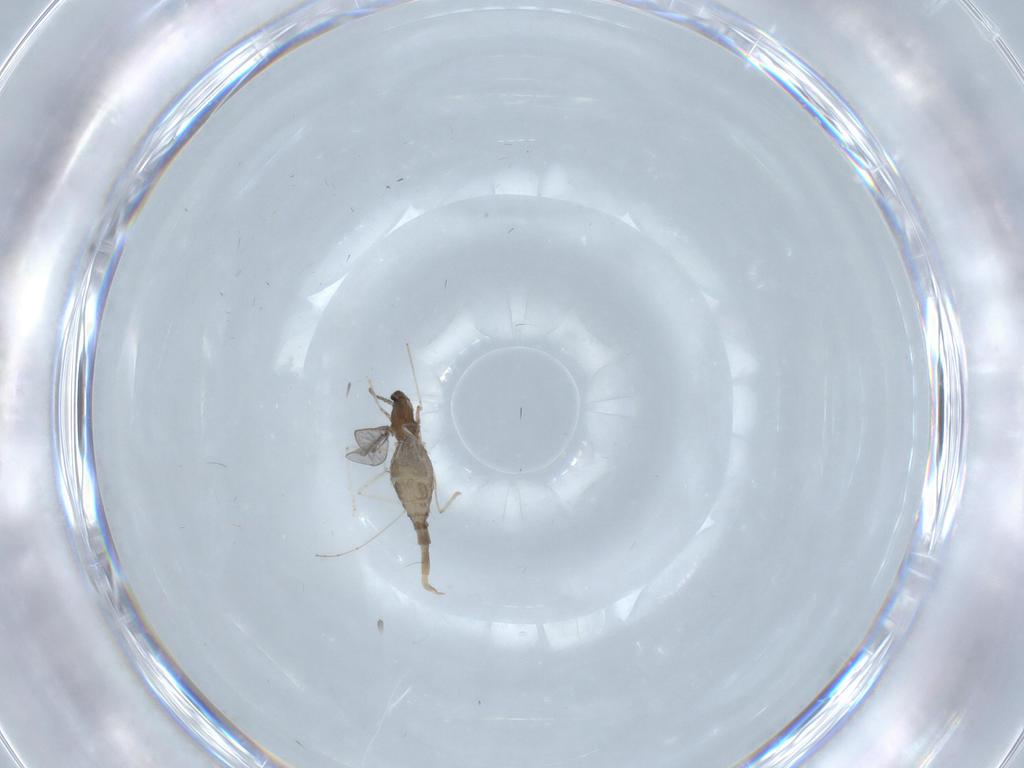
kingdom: Animalia
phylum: Arthropoda
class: Insecta
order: Diptera
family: Cecidomyiidae
